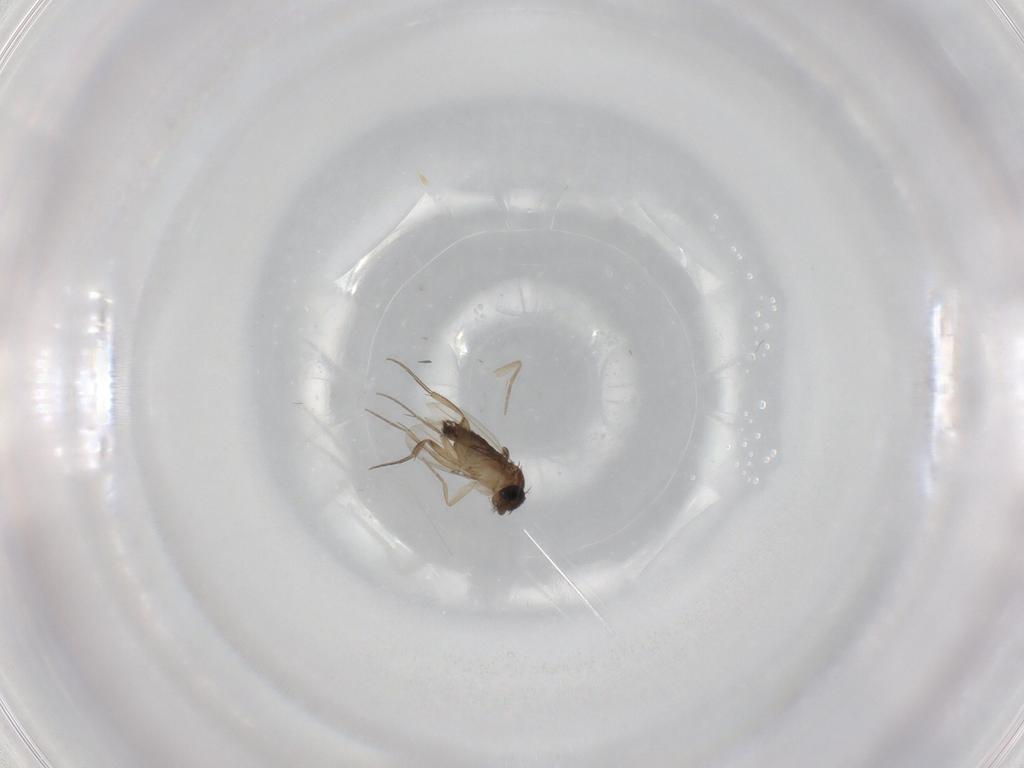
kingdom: Animalia
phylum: Arthropoda
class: Insecta
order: Diptera
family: Phoridae
